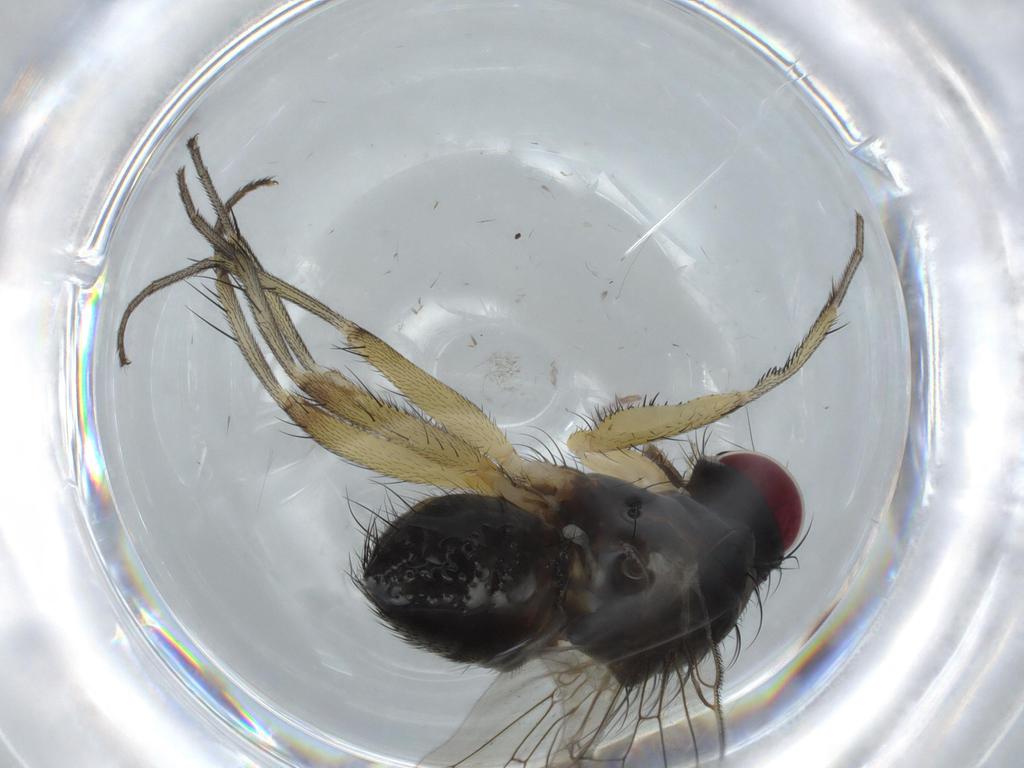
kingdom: Animalia
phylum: Arthropoda
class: Insecta
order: Diptera
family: Muscidae
